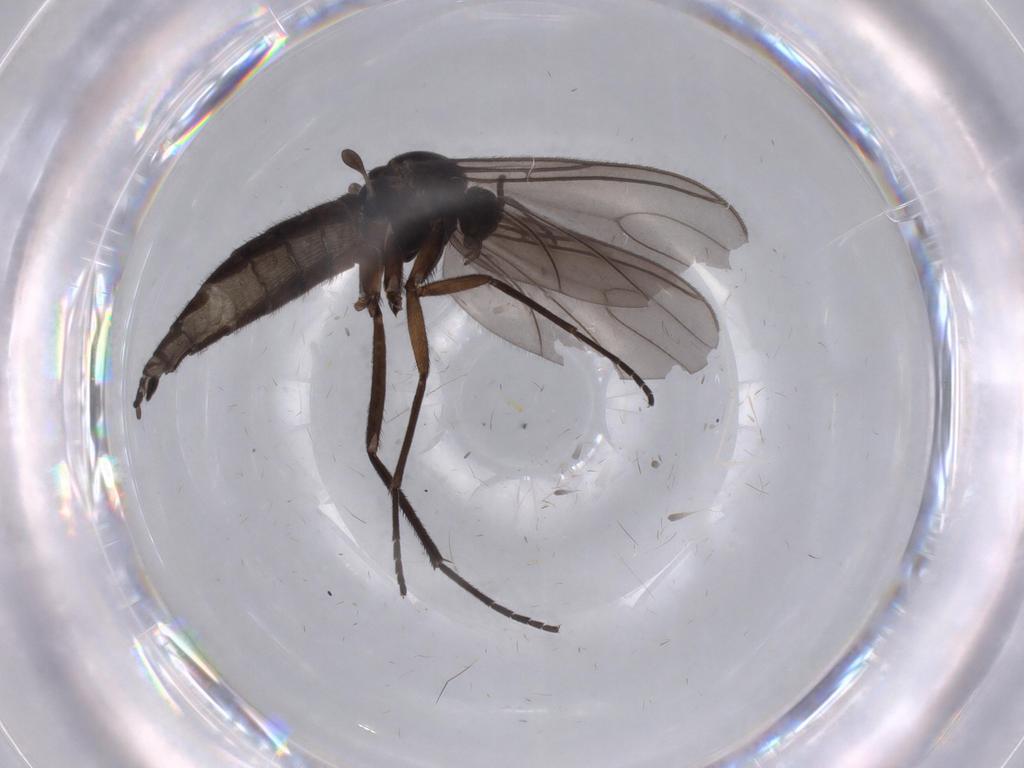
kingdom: Animalia
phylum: Arthropoda
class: Insecta
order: Diptera
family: Sciaridae
